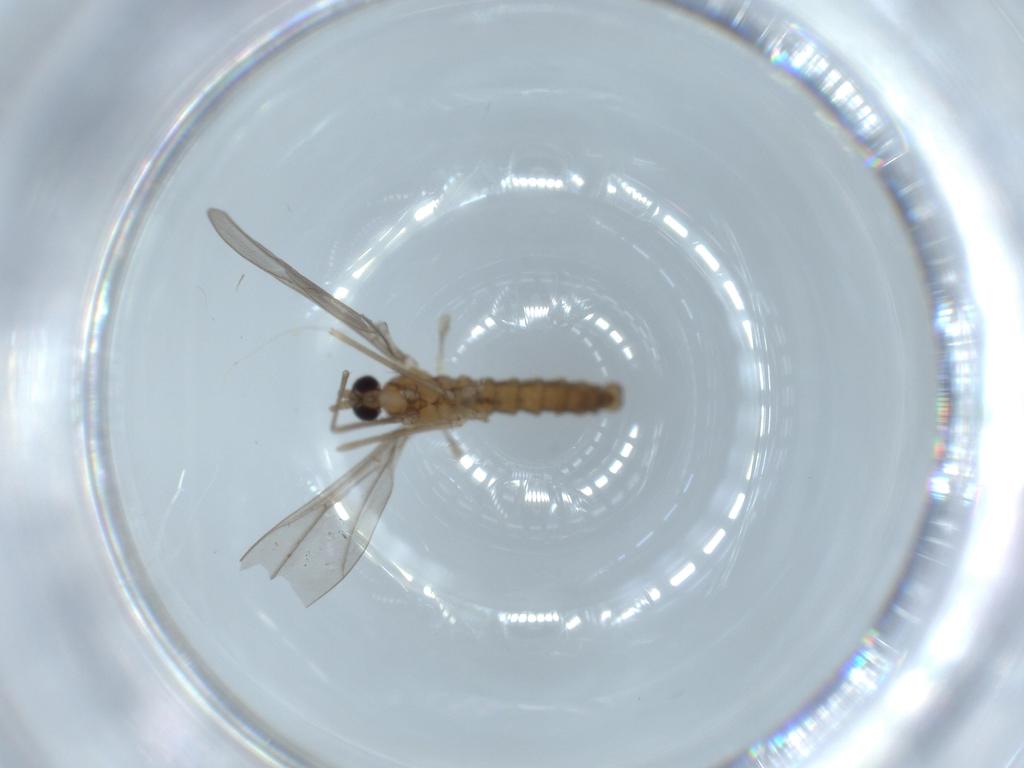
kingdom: Animalia
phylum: Arthropoda
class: Insecta
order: Diptera
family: Cecidomyiidae
